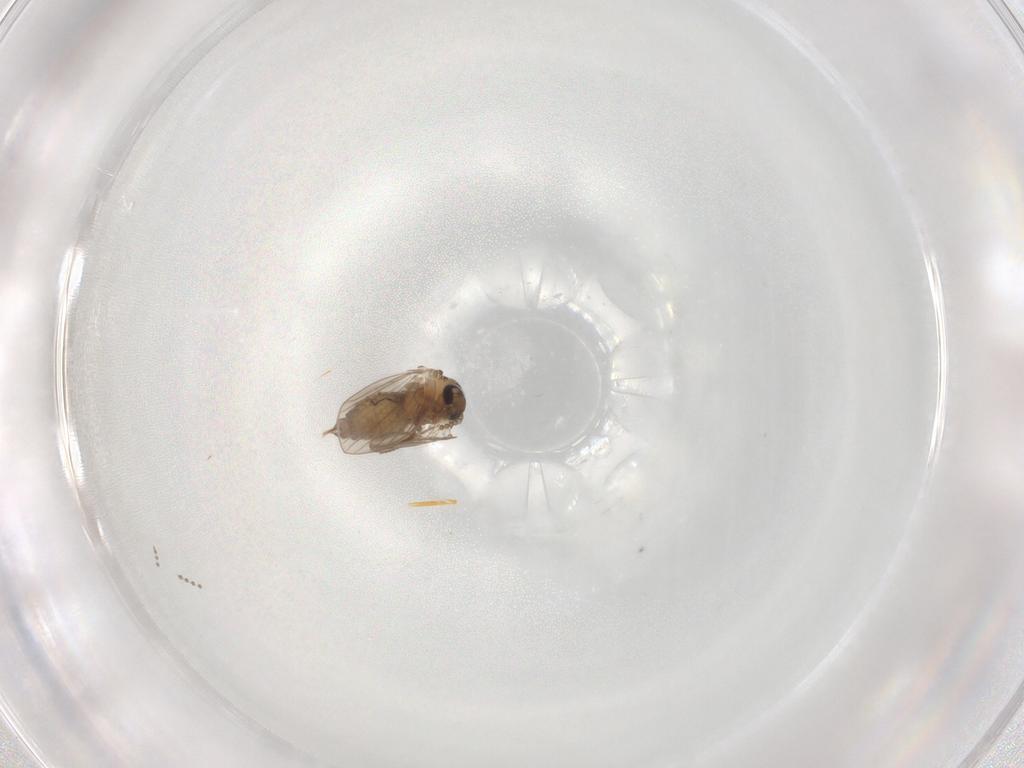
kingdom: Animalia
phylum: Arthropoda
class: Insecta
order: Diptera
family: Psychodidae
